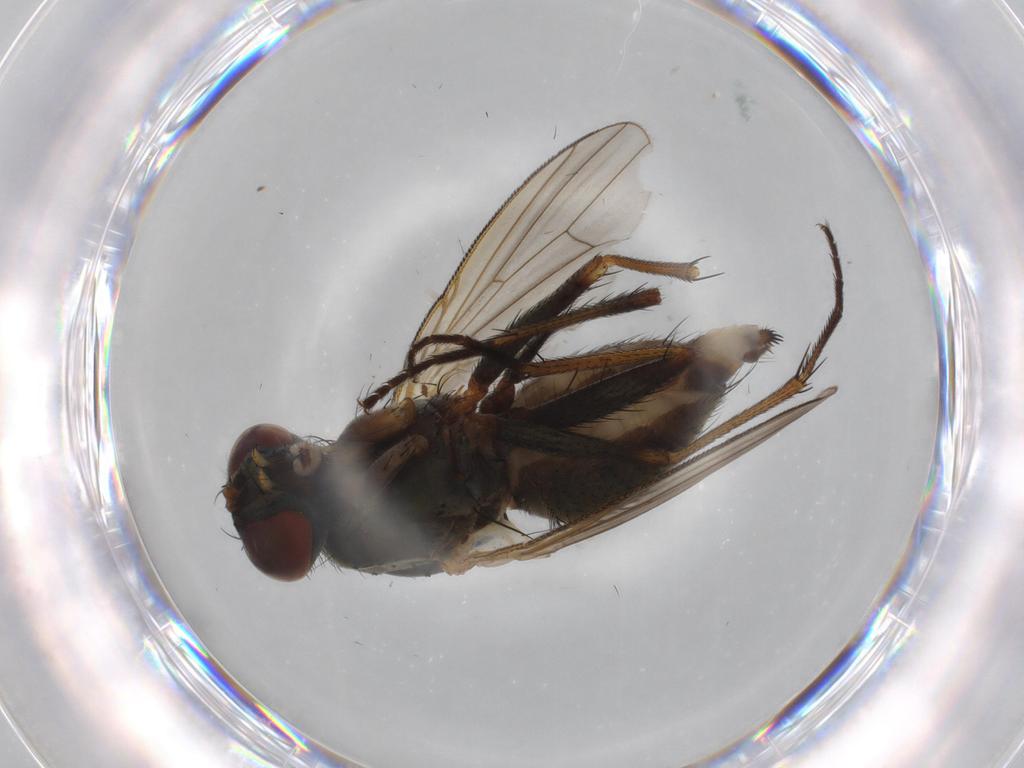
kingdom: Animalia
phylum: Arthropoda
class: Insecta
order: Diptera
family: Muscidae
